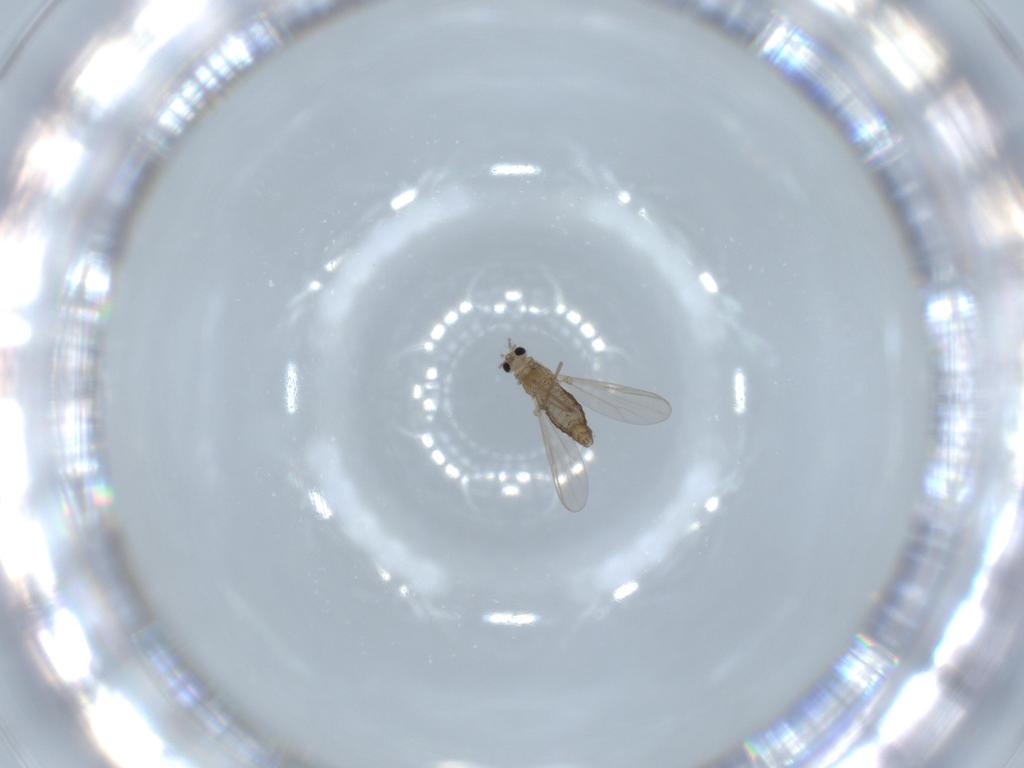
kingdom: Animalia
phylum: Arthropoda
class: Insecta
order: Diptera
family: Chironomidae
